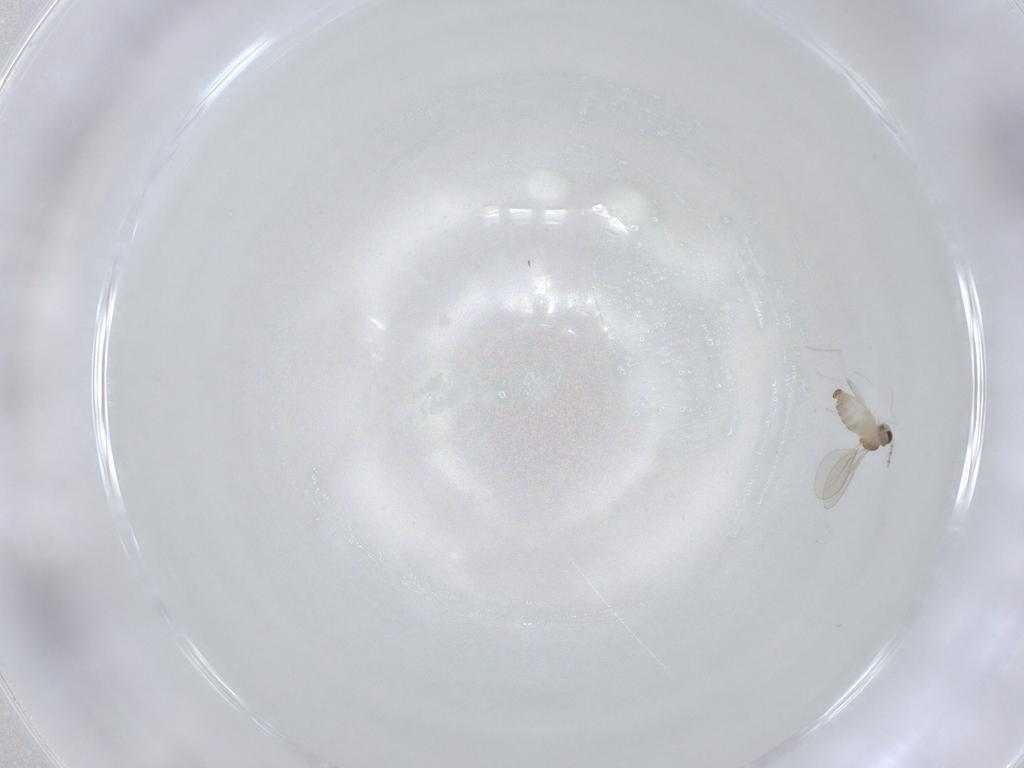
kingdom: Animalia
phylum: Arthropoda
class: Insecta
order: Diptera
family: Cecidomyiidae
